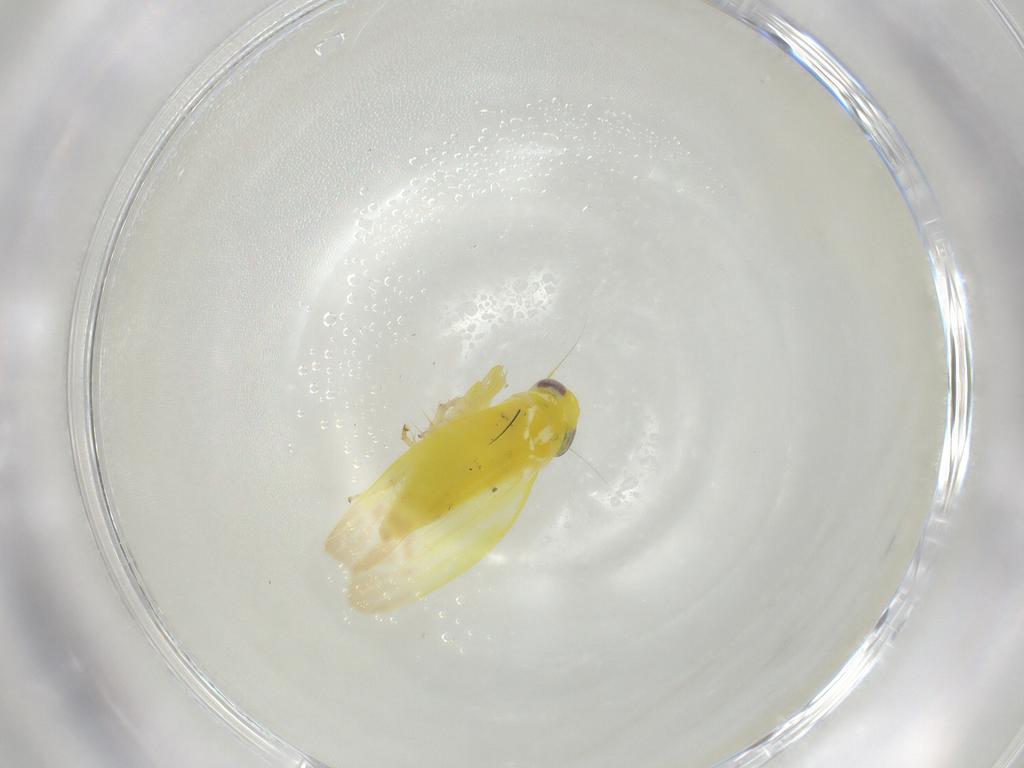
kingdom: Animalia
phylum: Arthropoda
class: Insecta
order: Hemiptera
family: Cicadellidae
